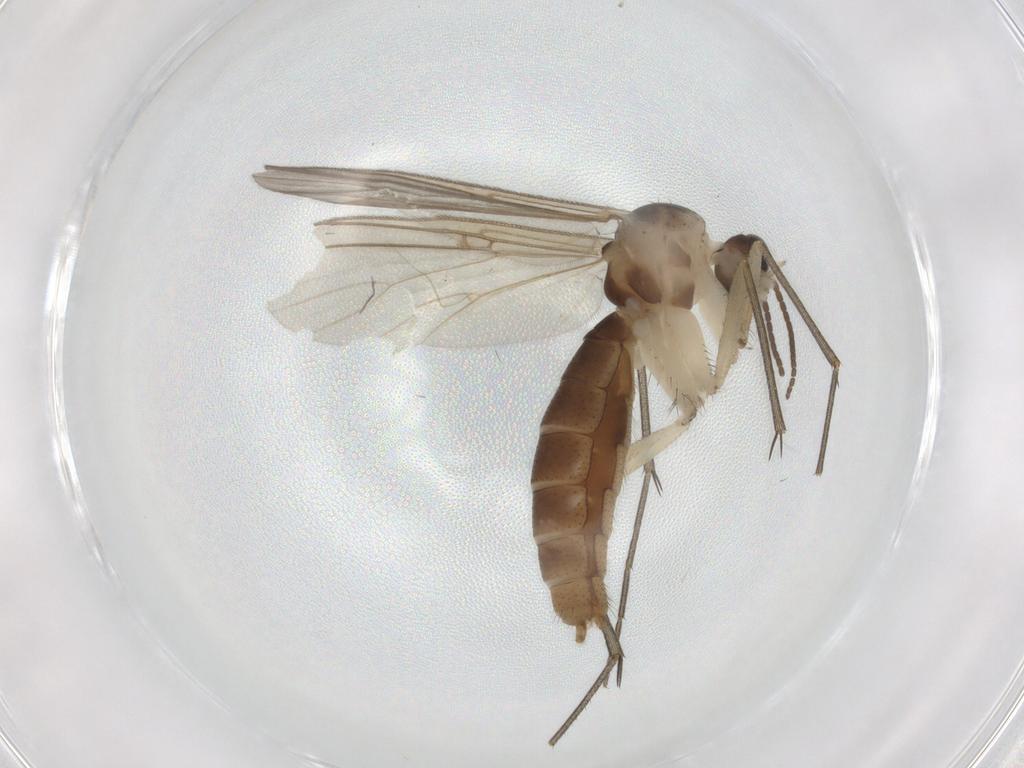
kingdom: Animalia
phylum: Arthropoda
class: Insecta
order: Diptera
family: Mycetophilidae
